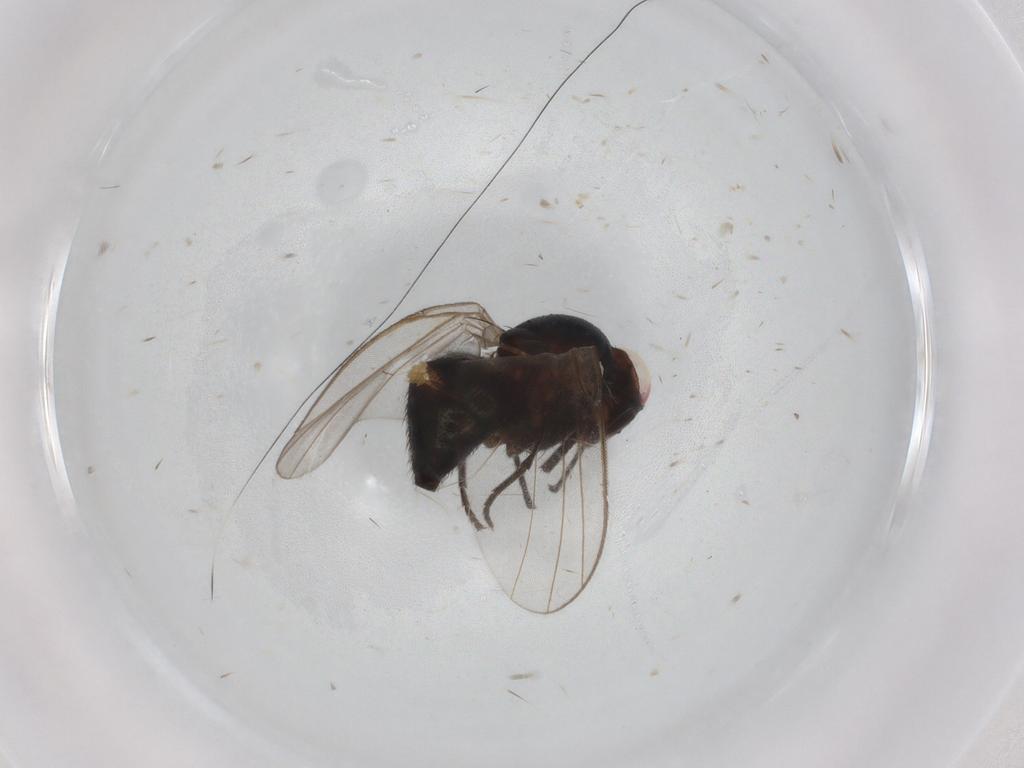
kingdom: Animalia
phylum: Arthropoda
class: Insecta
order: Diptera
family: Agromyzidae
